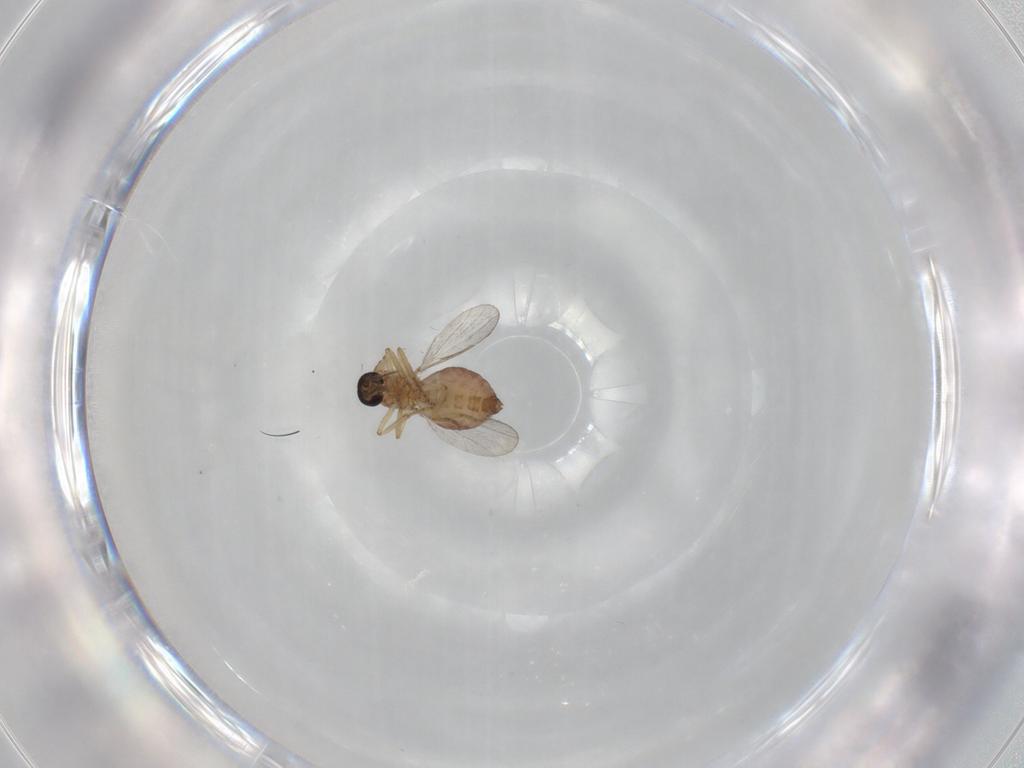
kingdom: Animalia
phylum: Arthropoda
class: Insecta
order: Diptera
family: Ceratopogonidae
